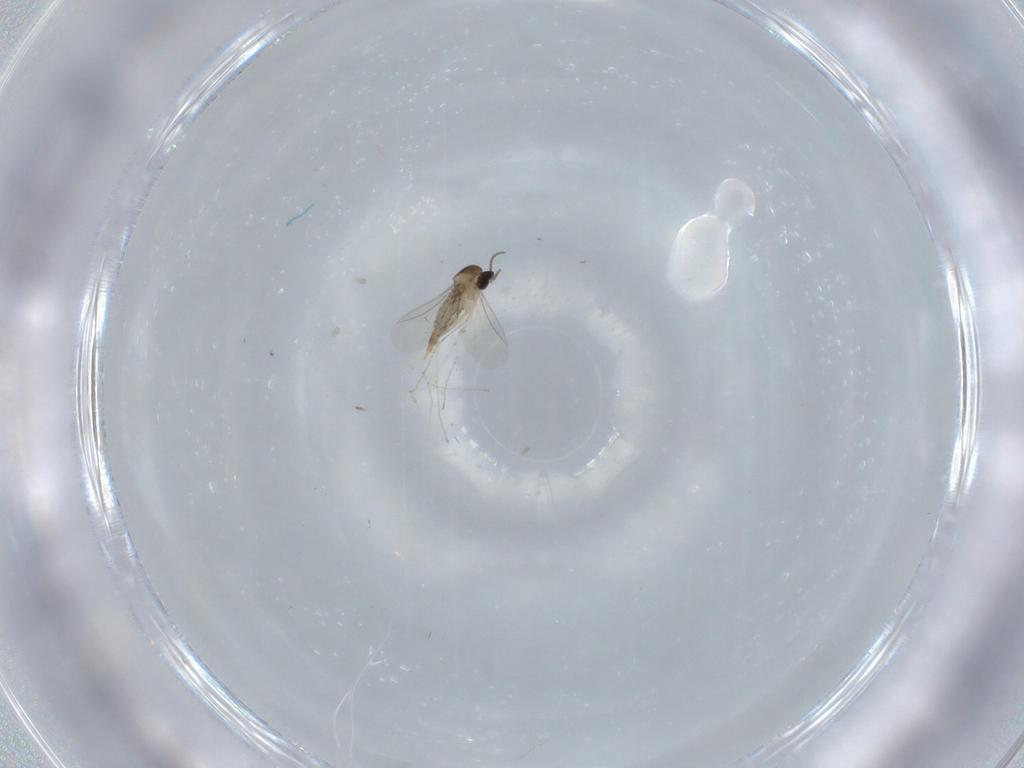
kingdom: Animalia
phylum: Arthropoda
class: Insecta
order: Diptera
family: Cecidomyiidae
